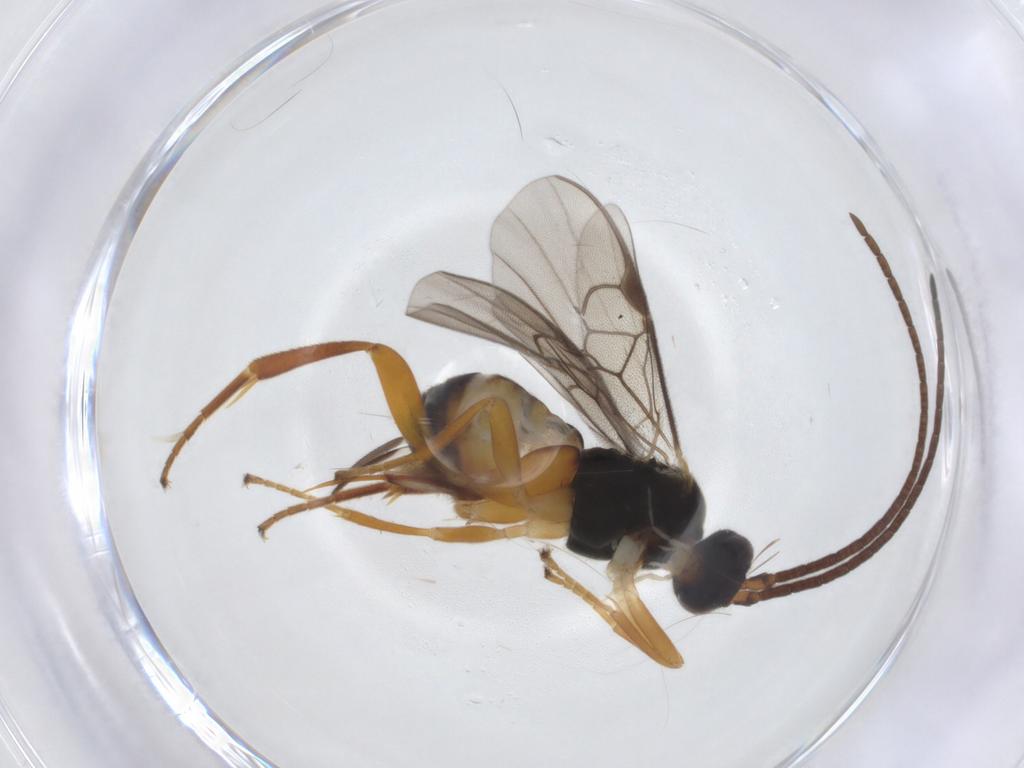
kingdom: Animalia
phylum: Arthropoda
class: Insecta
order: Hymenoptera
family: Braconidae
